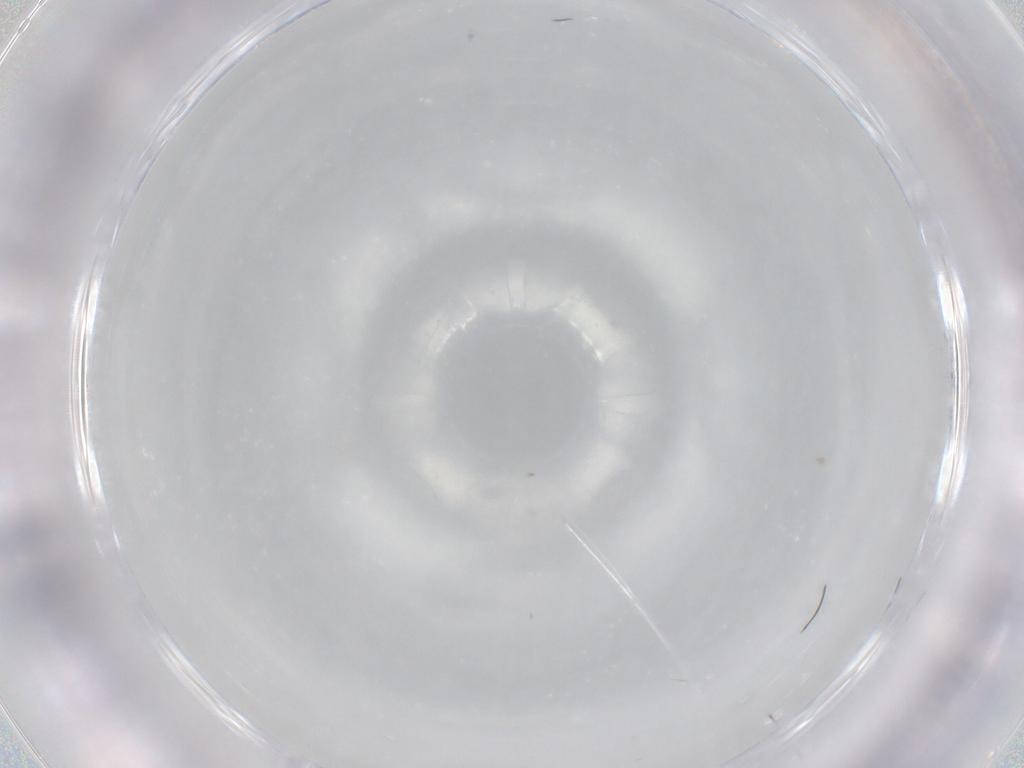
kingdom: Animalia
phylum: Arthropoda
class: Insecta
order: Diptera
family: Sciaridae
